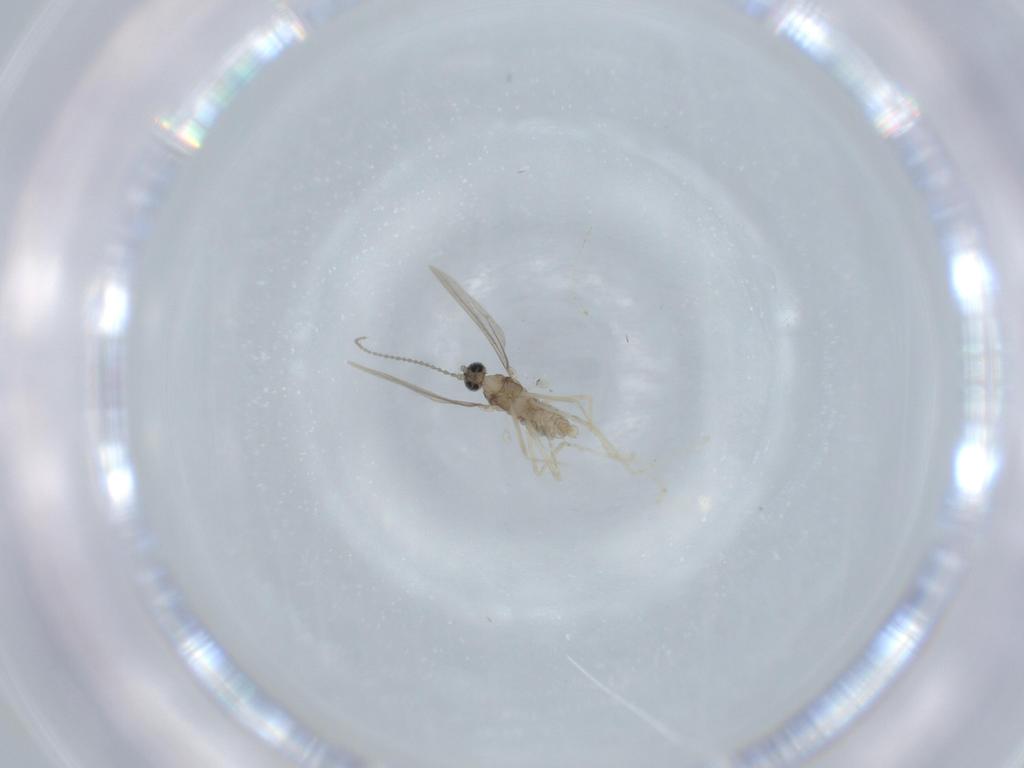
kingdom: Animalia
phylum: Arthropoda
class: Insecta
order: Diptera
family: Cecidomyiidae
